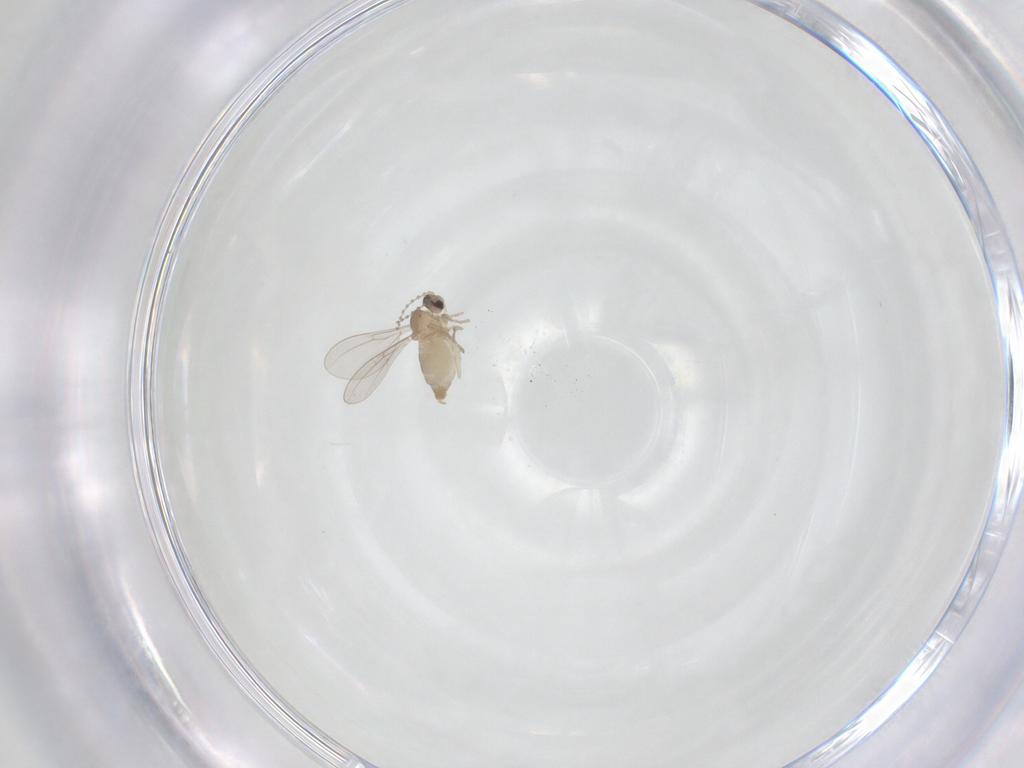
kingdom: Animalia
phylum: Arthropoda
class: Insecta
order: Diptera
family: Cecidomyiidae
